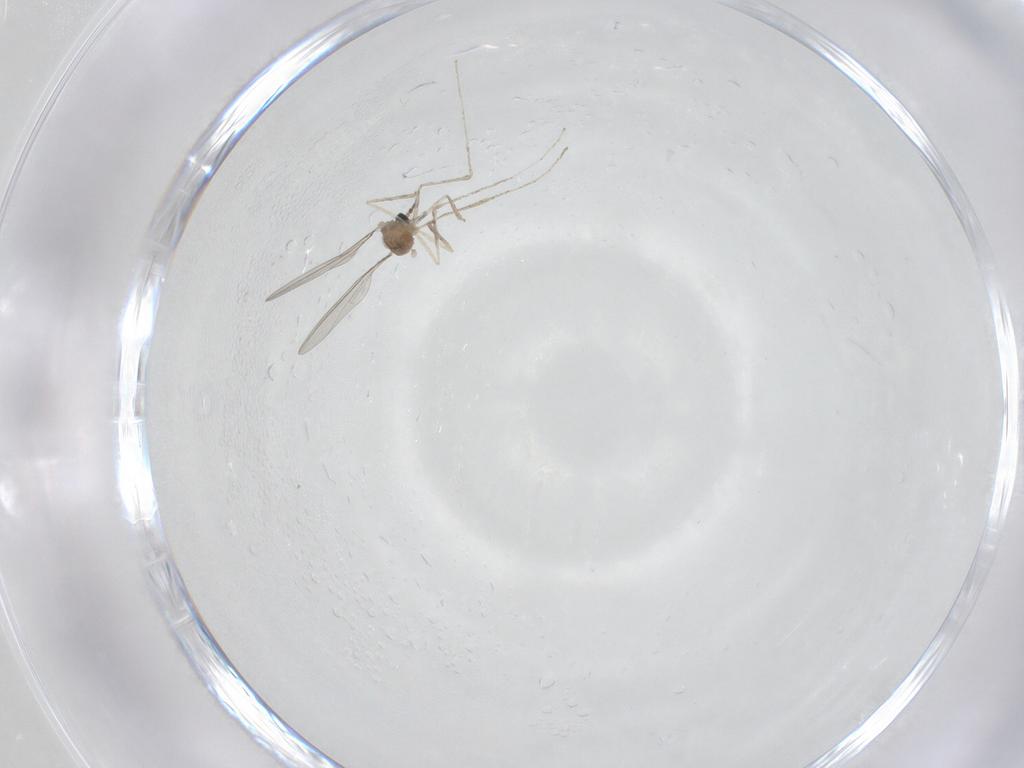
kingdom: Animalia
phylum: Arthropoda
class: Insecta
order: Diptera
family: Cecidomyiidae
